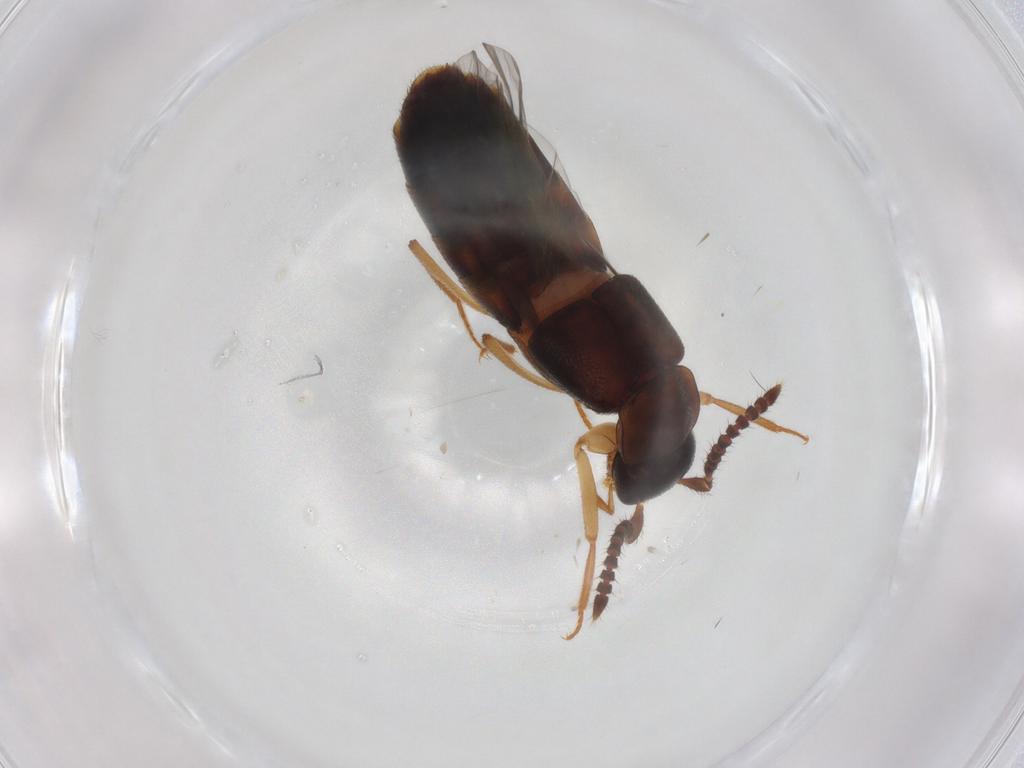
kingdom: Animalia
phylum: Arthropoda
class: Insecta
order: Coleoptera
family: Staphylinidae
